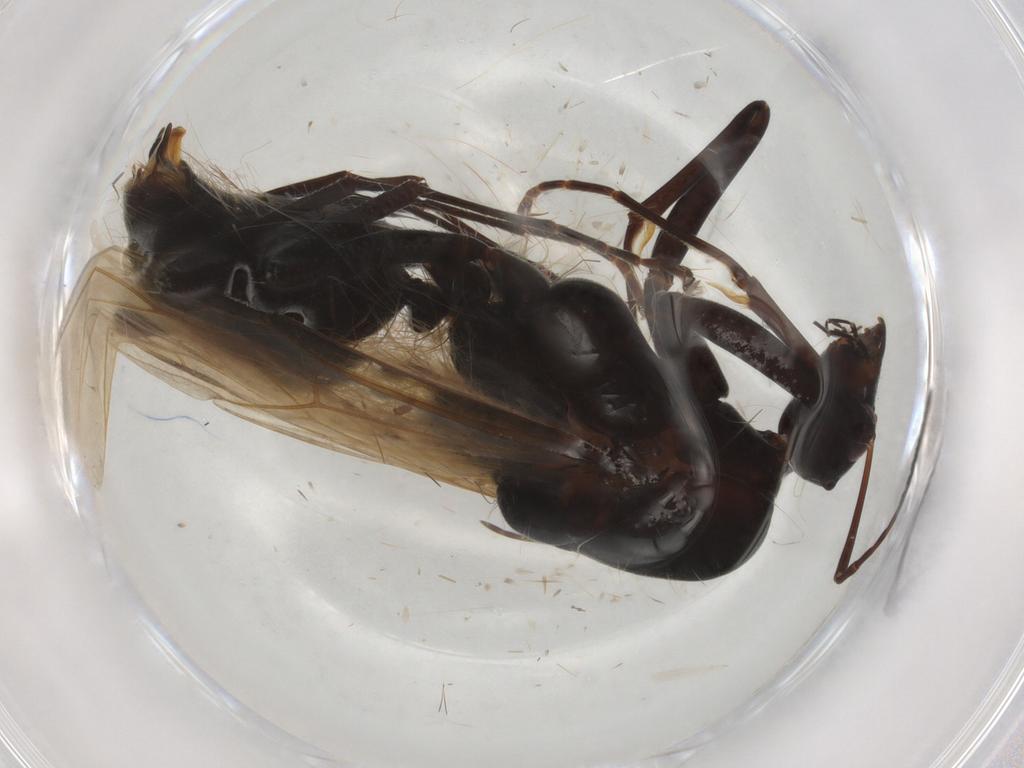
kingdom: Animalia
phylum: Arthropoda
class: Insecta
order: Hymenoptera
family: Formicidae
